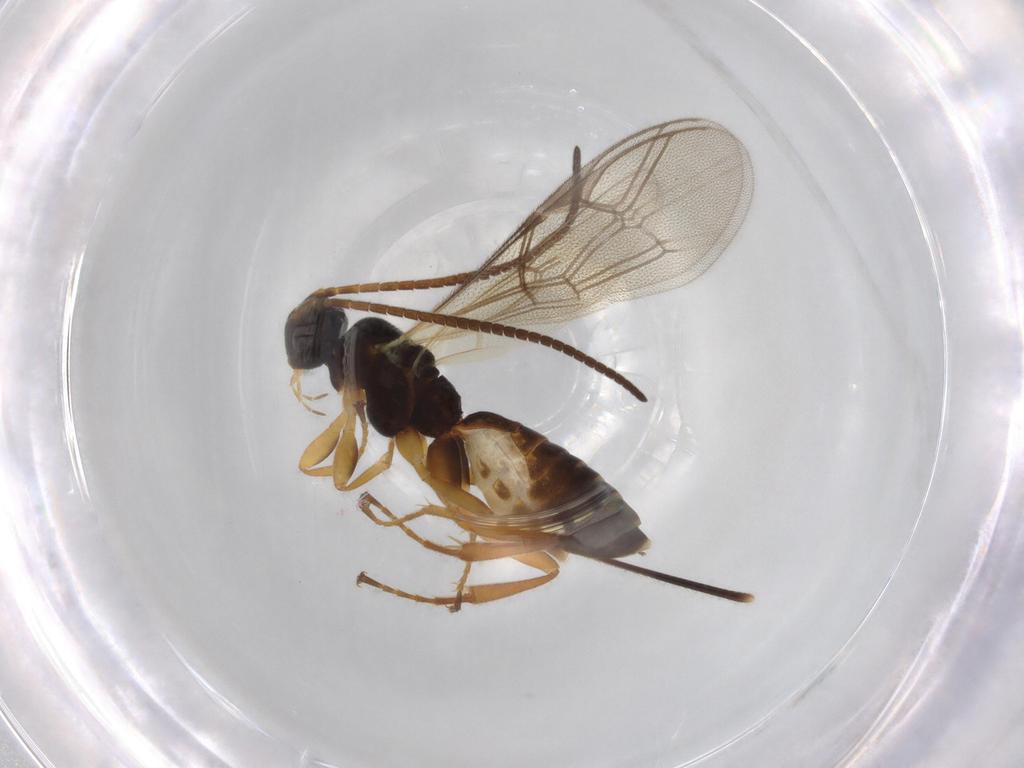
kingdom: Animalia
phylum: Arthropoda
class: Insecta
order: Hymenoptera
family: Ichneumonidae
